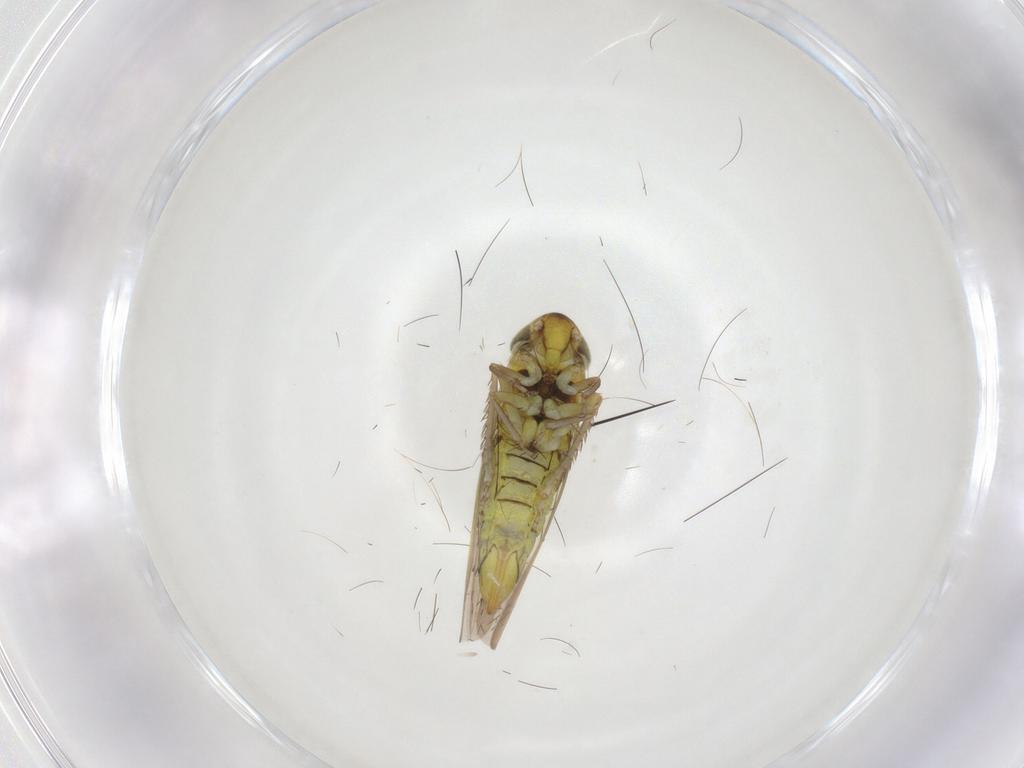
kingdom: Animalia
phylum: Arthropoda
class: Insecta
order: Hemiptera
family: Cicadellidae
